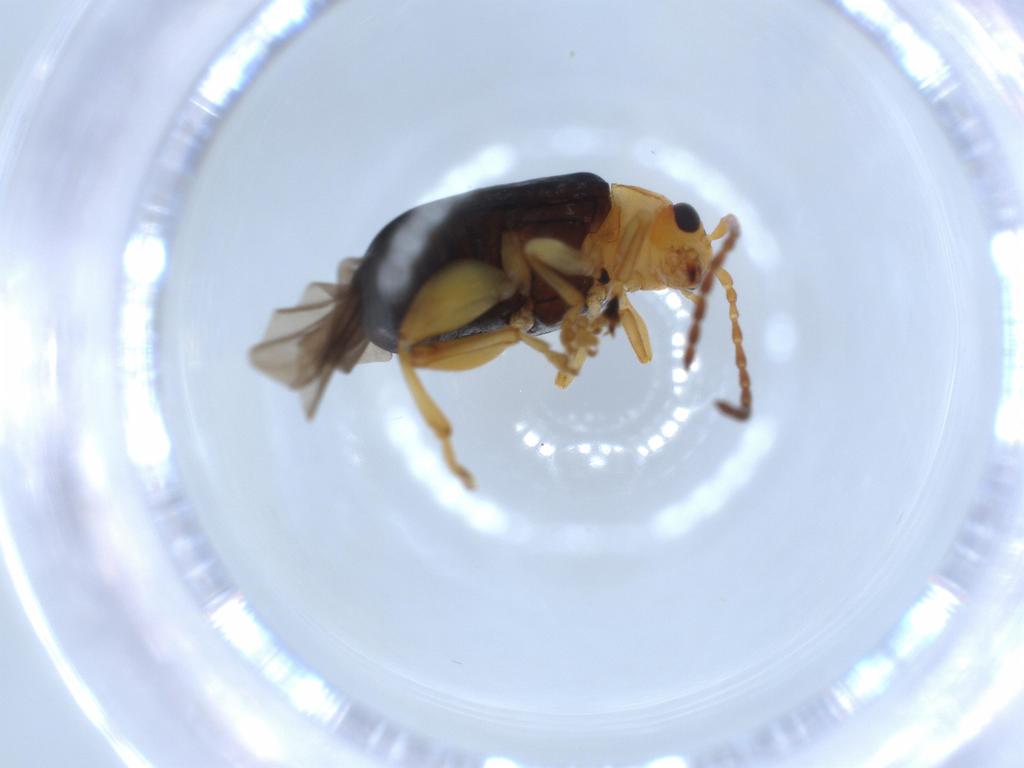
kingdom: Animalia
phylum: Arthropoda
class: Insecta
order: Coleoptera
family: Chrysomelidae
